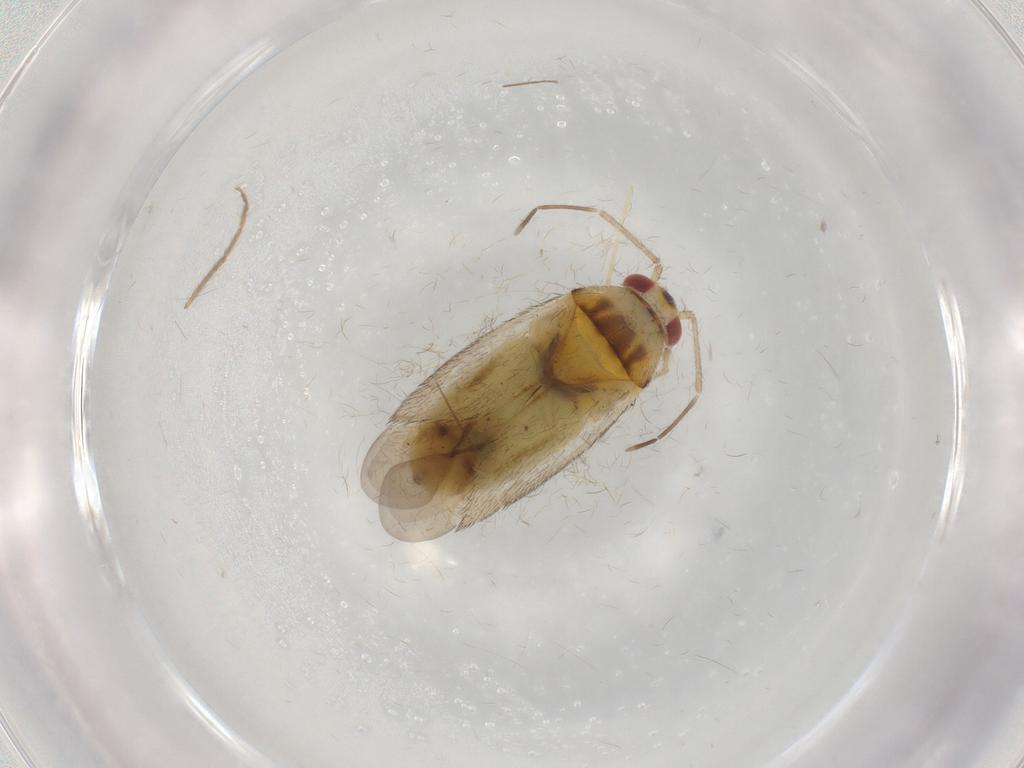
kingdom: Animalia
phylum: Arthropoda
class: Insecta
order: Hemiptera
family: Miridae
